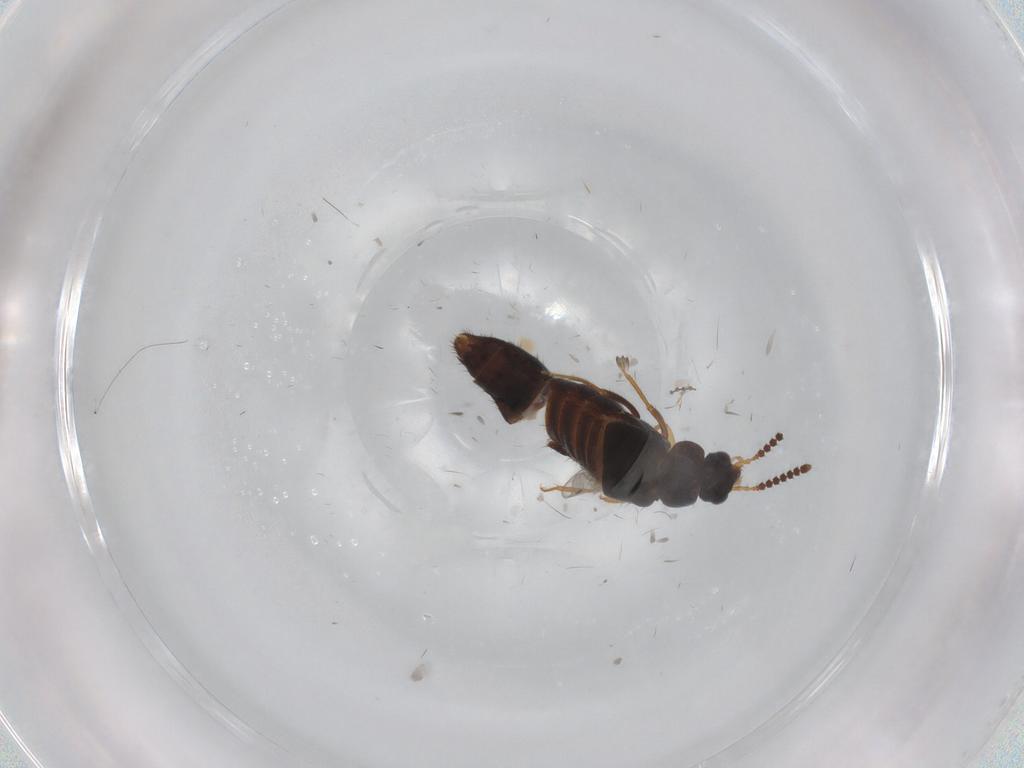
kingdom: Animalia
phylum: Arthropoda
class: Insecta
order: Coleoptera
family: Staphylinidae
